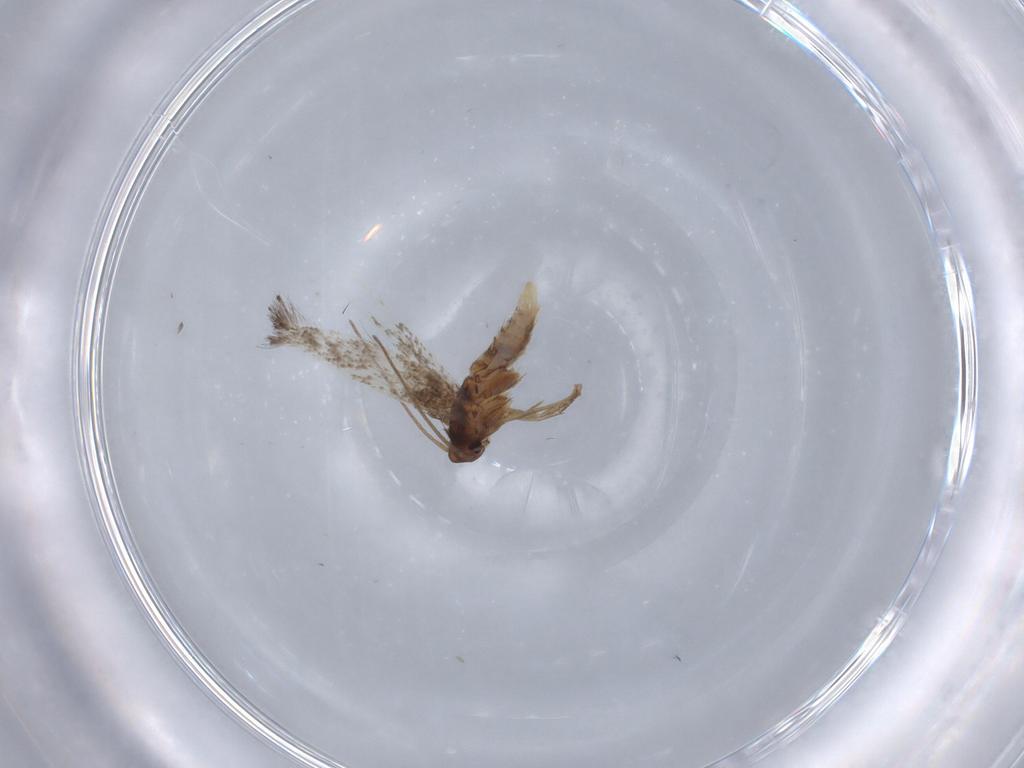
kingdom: Animalia
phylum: Arthropoda
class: Insecta
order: Lepidoptera
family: Elachistidae
